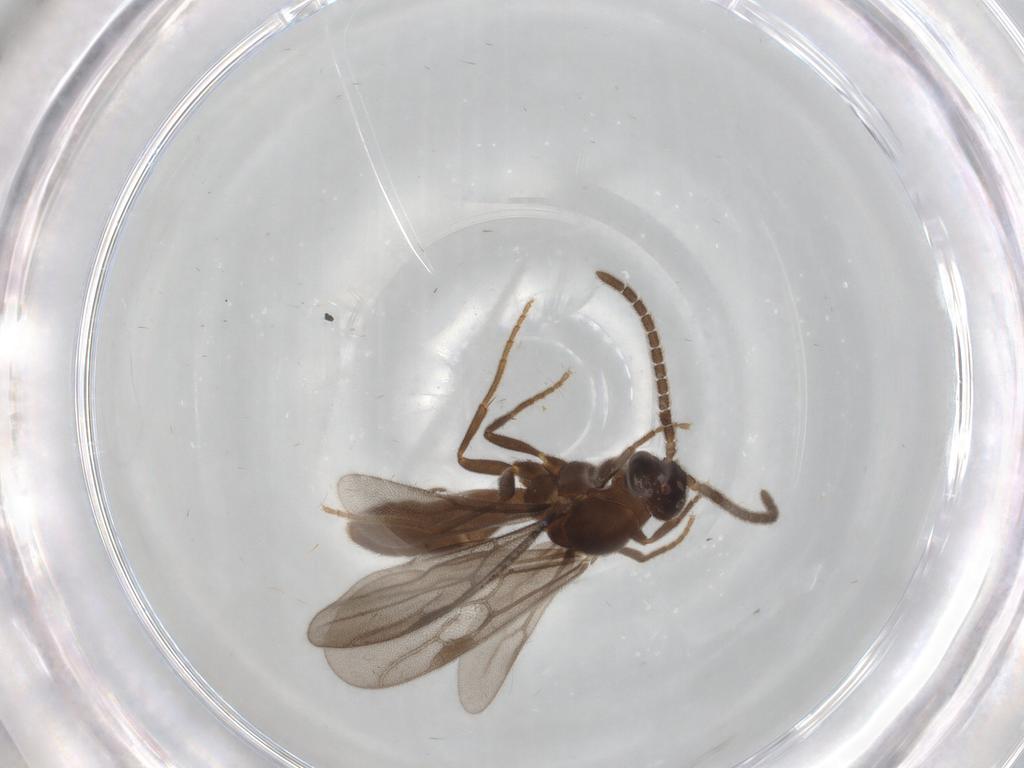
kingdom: Animalia
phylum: Arthropoda
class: Insecta
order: Hymenoptera
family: Formicidae
